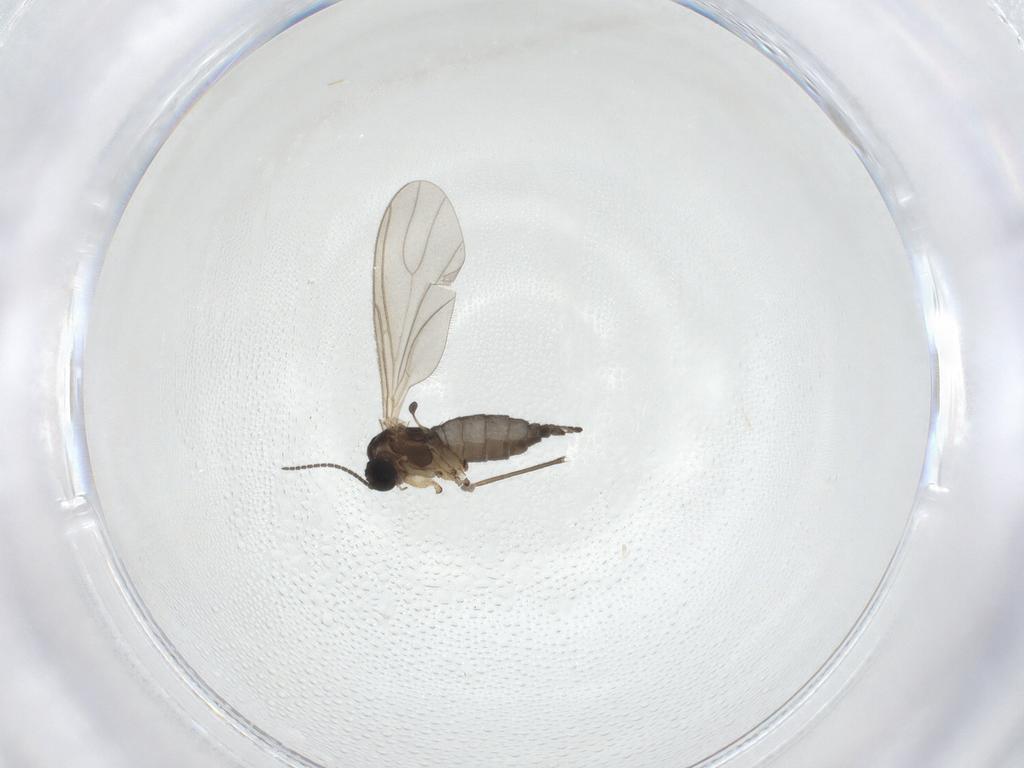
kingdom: Animalia
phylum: Arthropoda
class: Insecta
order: Diptera
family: Sciaridae
